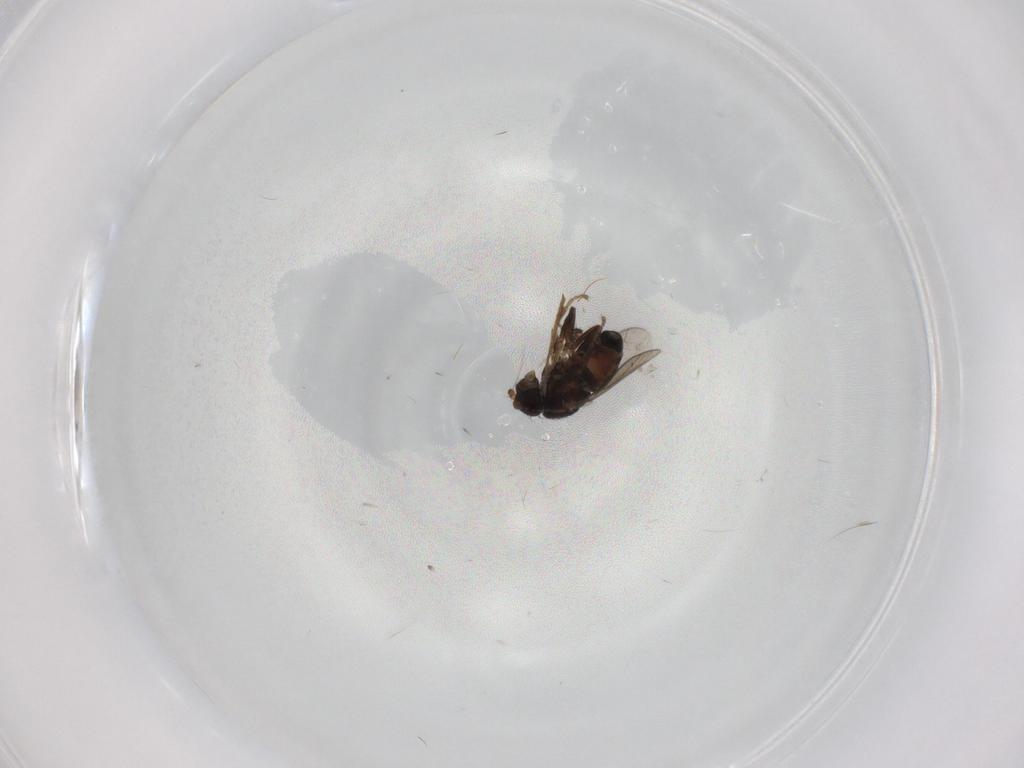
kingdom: Animalia
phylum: Arthropoda
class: Insecta
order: Diptera
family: Sphaeroceridae
